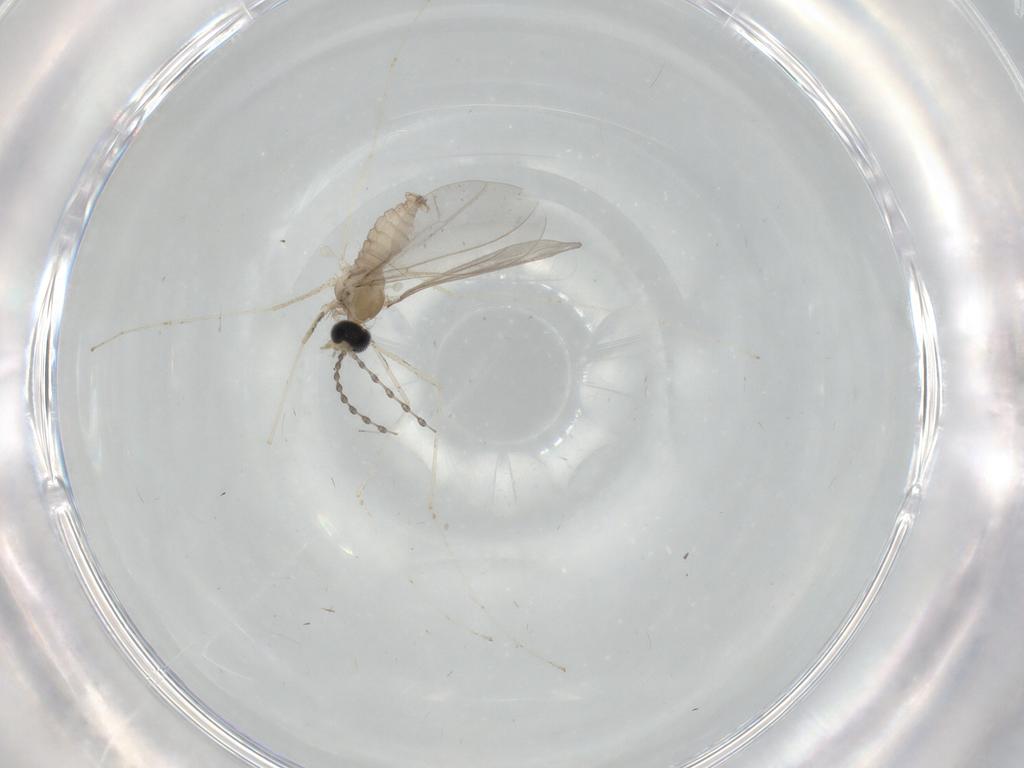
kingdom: Animalia
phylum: Arthropoda
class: Insecta
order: Diptera
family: Cecidomyiidae
